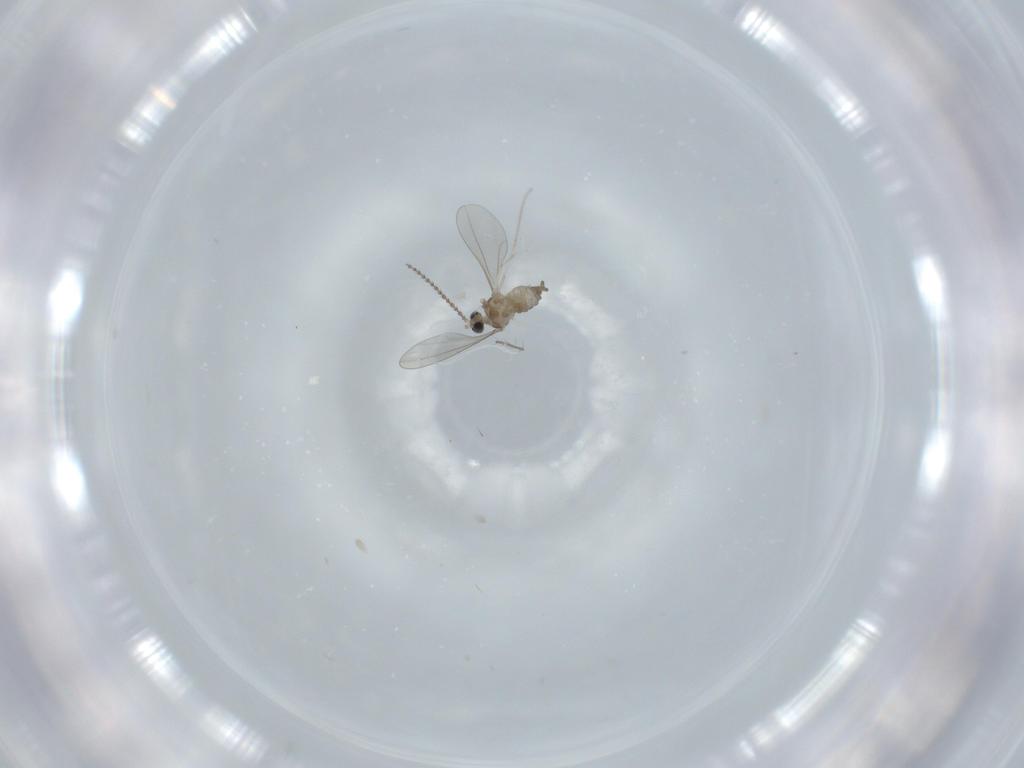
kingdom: Animalia
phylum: Arthropoda
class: Insecta
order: Diptera
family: Cecidomyiidae
